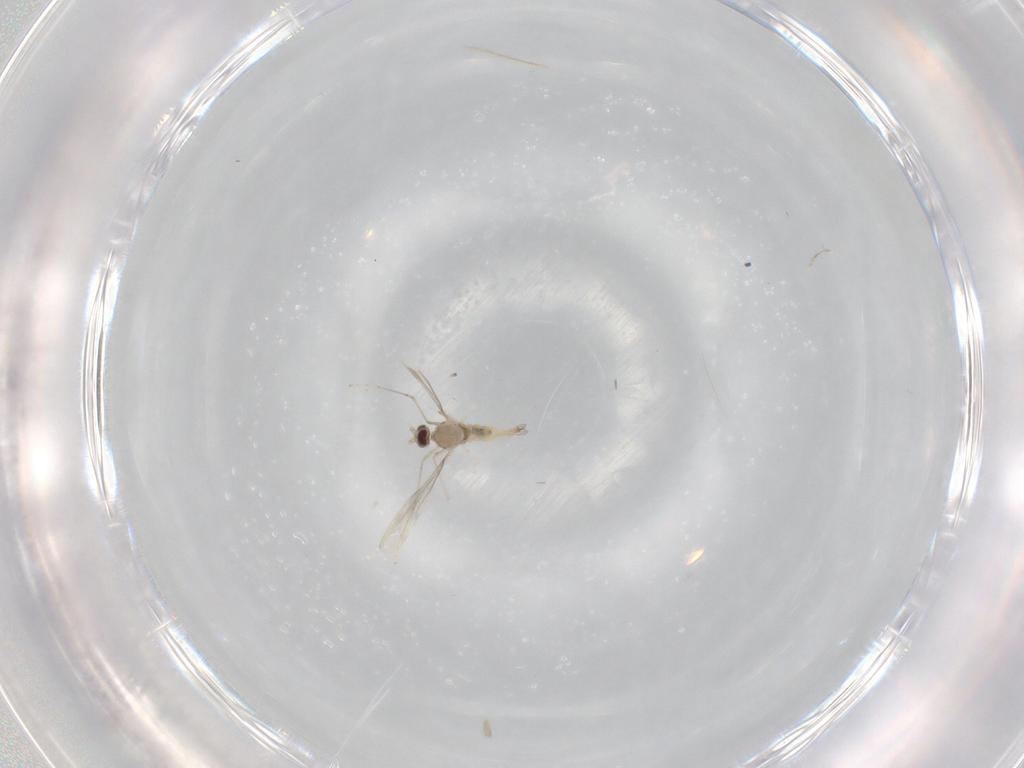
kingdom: Animalia
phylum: Arthropoda
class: Insecta
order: Diptera
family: Cecidomyiidae
